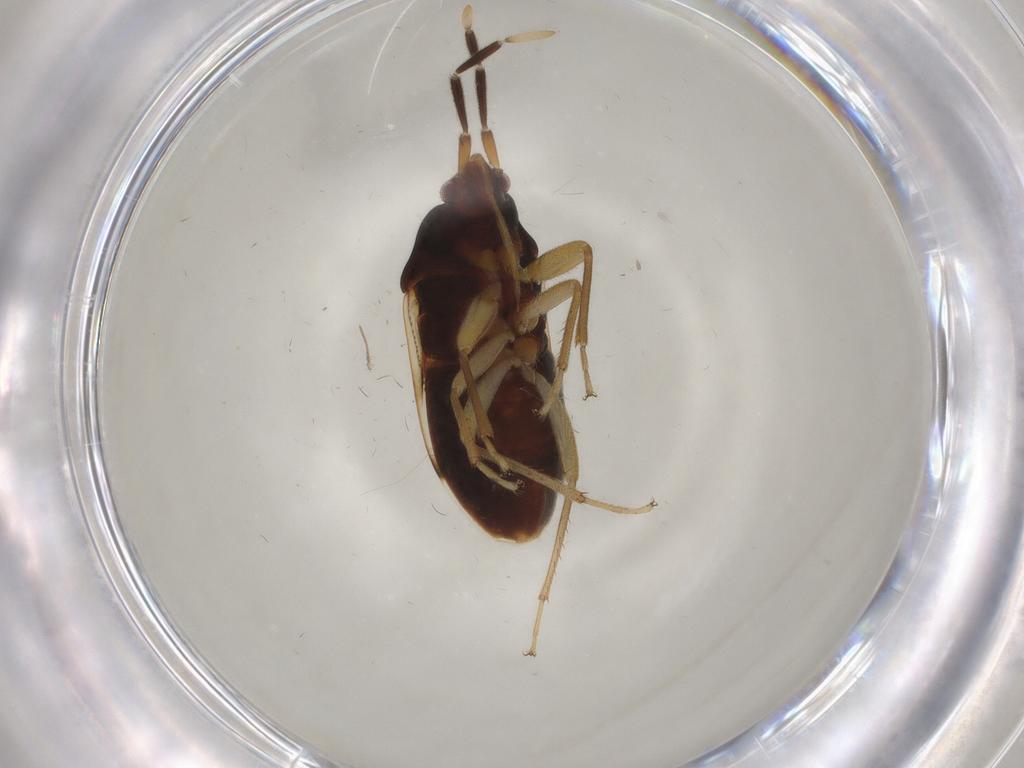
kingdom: Animalia
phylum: Arthropoda
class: Insecta
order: Hemiptera
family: Rhyparochromidae
